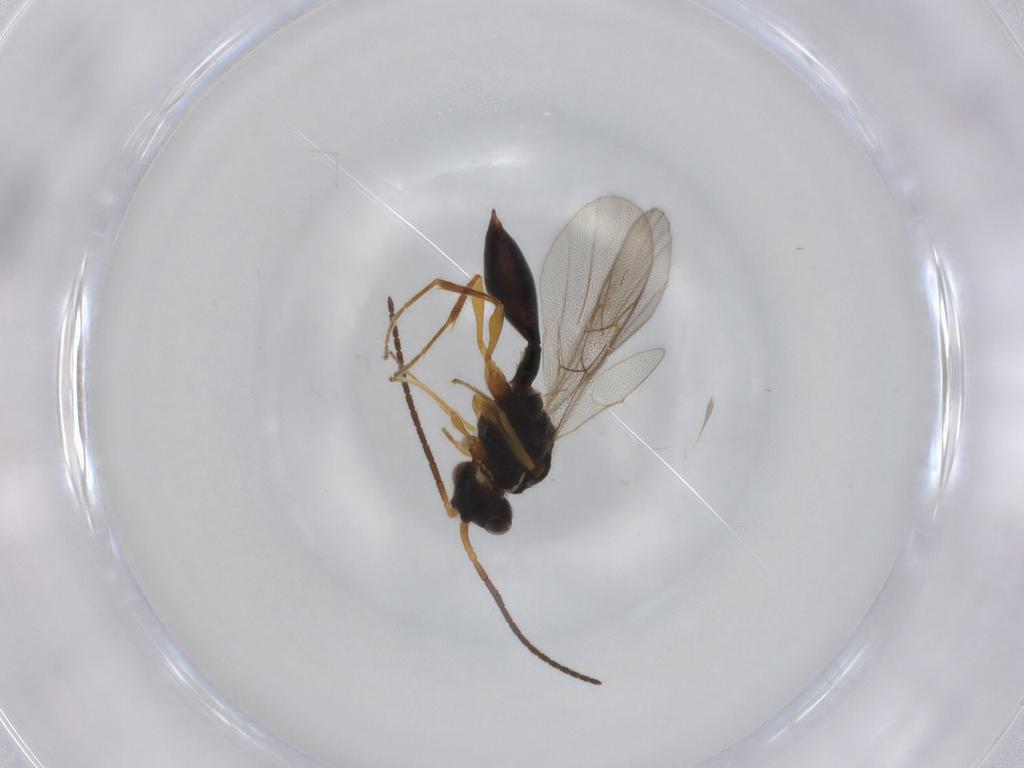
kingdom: Animalia
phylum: Arthropoda
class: Insecta
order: Hymenoptera
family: Diapriidae
